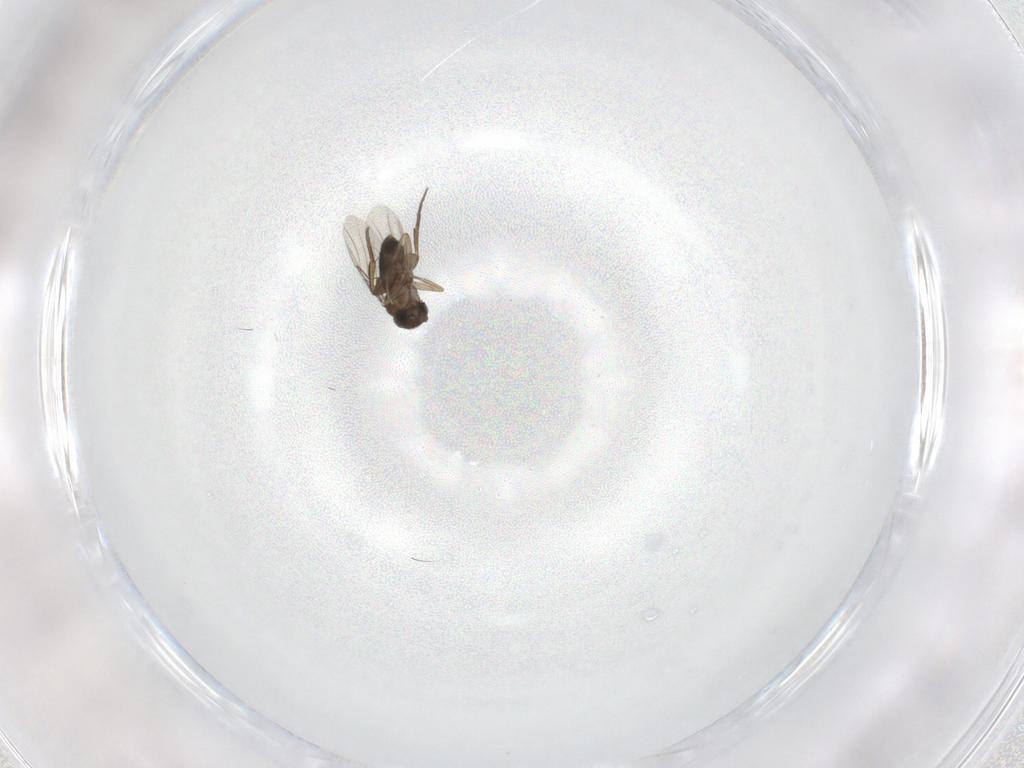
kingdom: Animalia
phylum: Arthropoda
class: Insecta
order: Diptera
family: Phoridae
